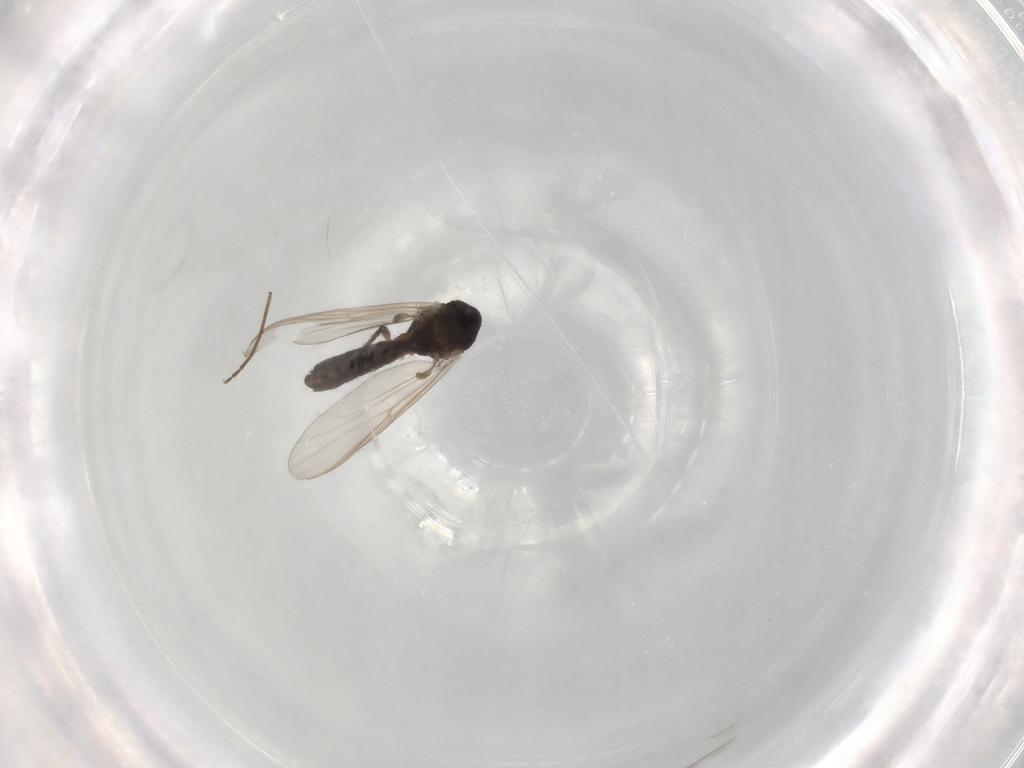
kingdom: Animalia
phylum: Arthropoda
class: Insecta
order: Diptera
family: Chironomidae
